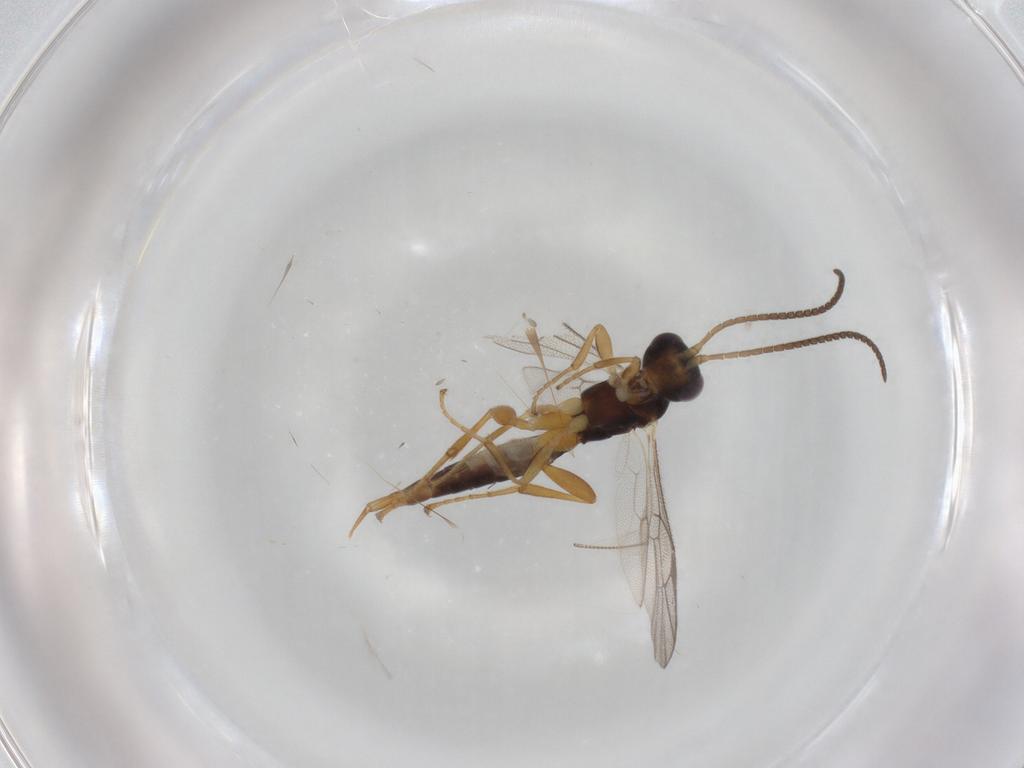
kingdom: Animalia
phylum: Arthropoda
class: Insecta
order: Hymenoptera
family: Ichneumonidae
